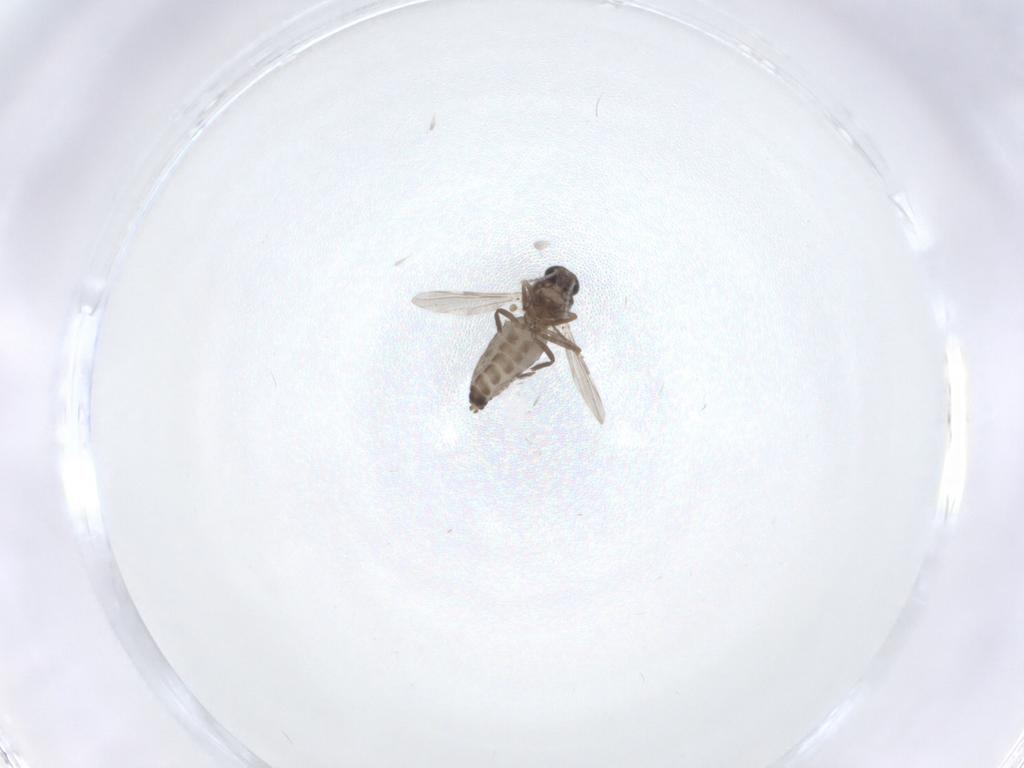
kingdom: Animalia
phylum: Arthropoda
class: Insecta
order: Diptera
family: Ceratopogonidae
